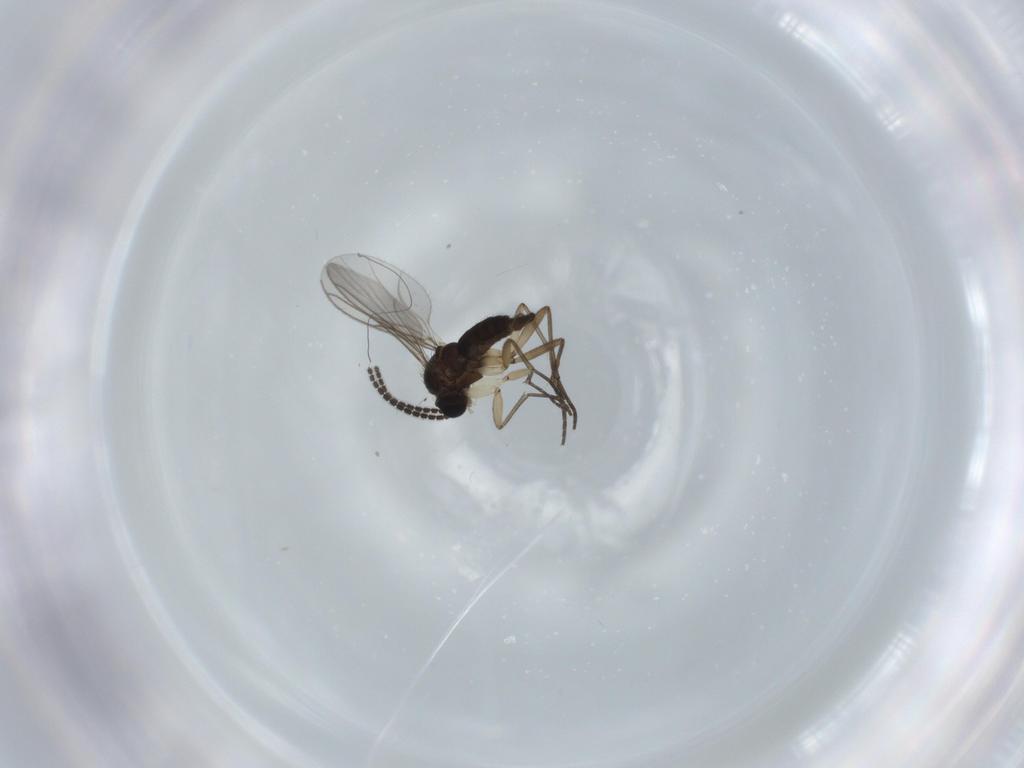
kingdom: Animalia
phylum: Arthropoda
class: Insecta
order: Diptera
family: Sciaridae
